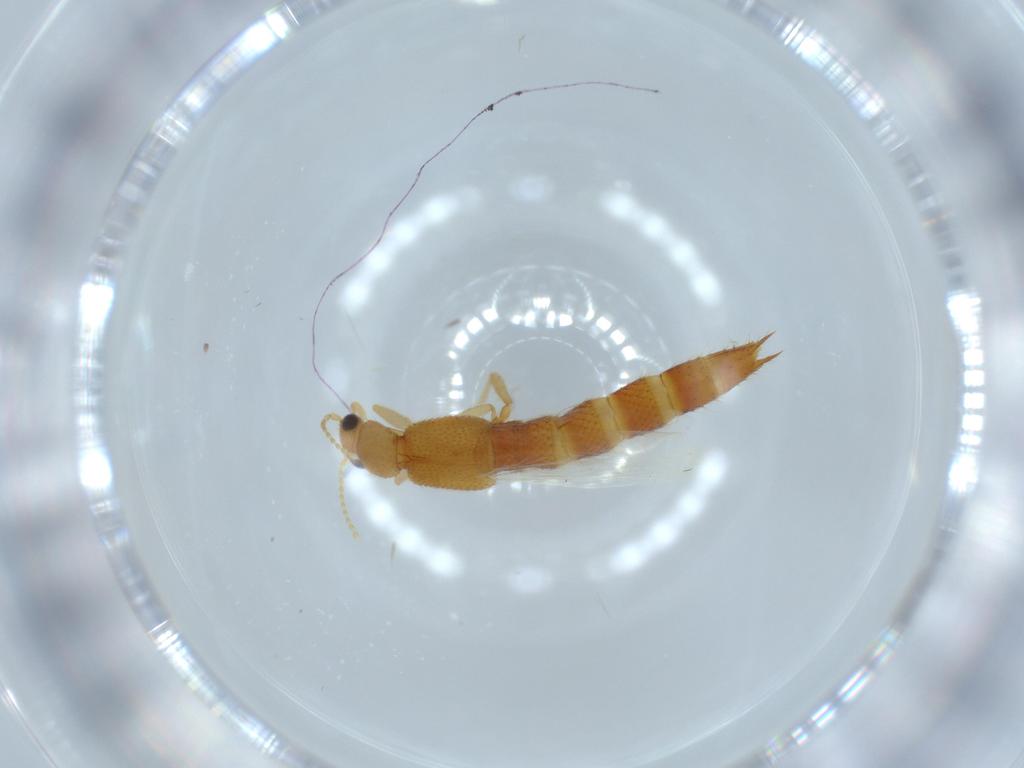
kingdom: Animalia
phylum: Arthropoda
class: Insecta
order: Coleoptera
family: Staphylinidae
